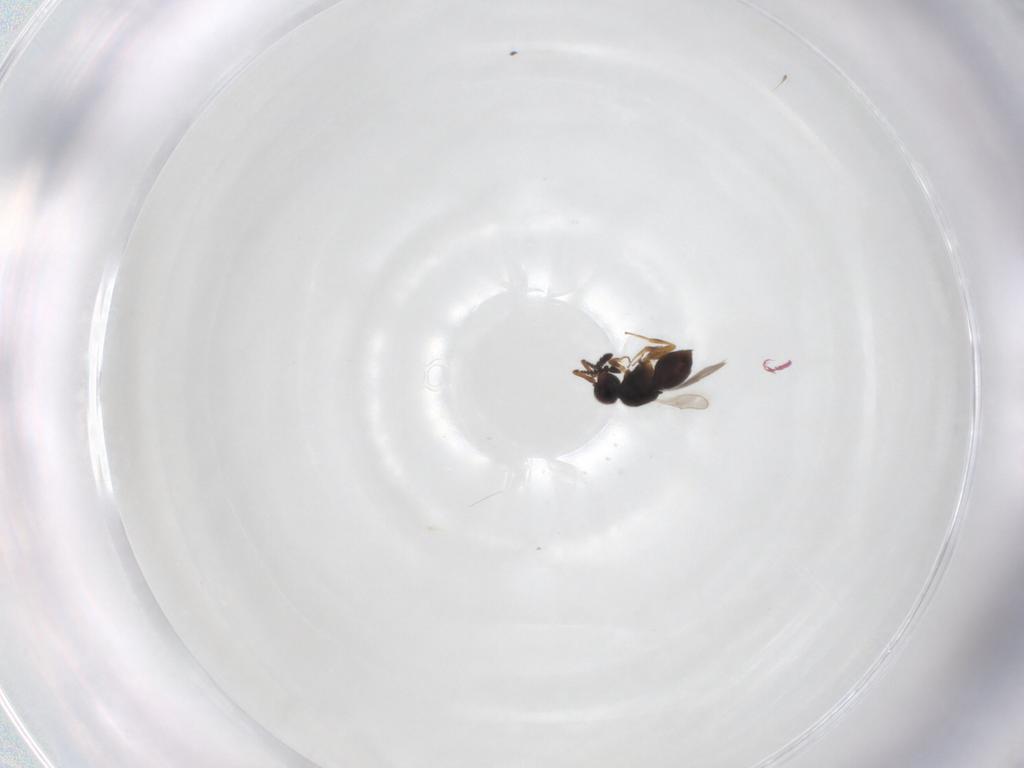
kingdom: Animalia
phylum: Arthropoda
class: Insecta
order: Hymenoptera
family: Ceraphronidae
